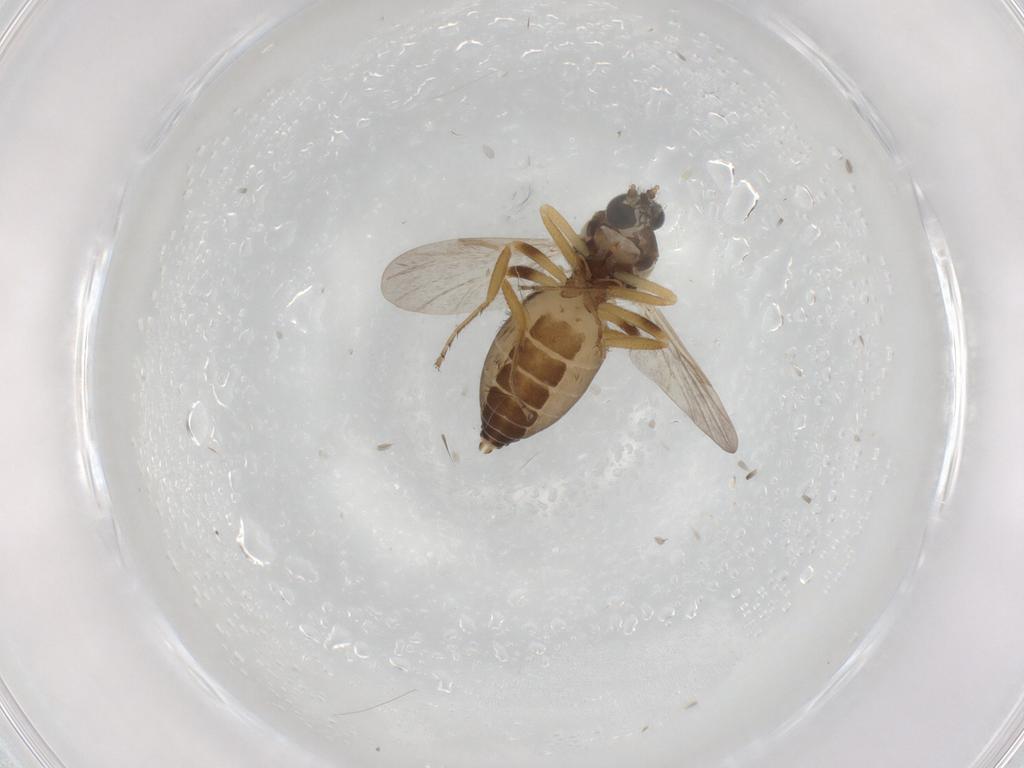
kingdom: Animalia
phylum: Arthropoda
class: Insecta
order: Diptera
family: Ceratopogonidae
